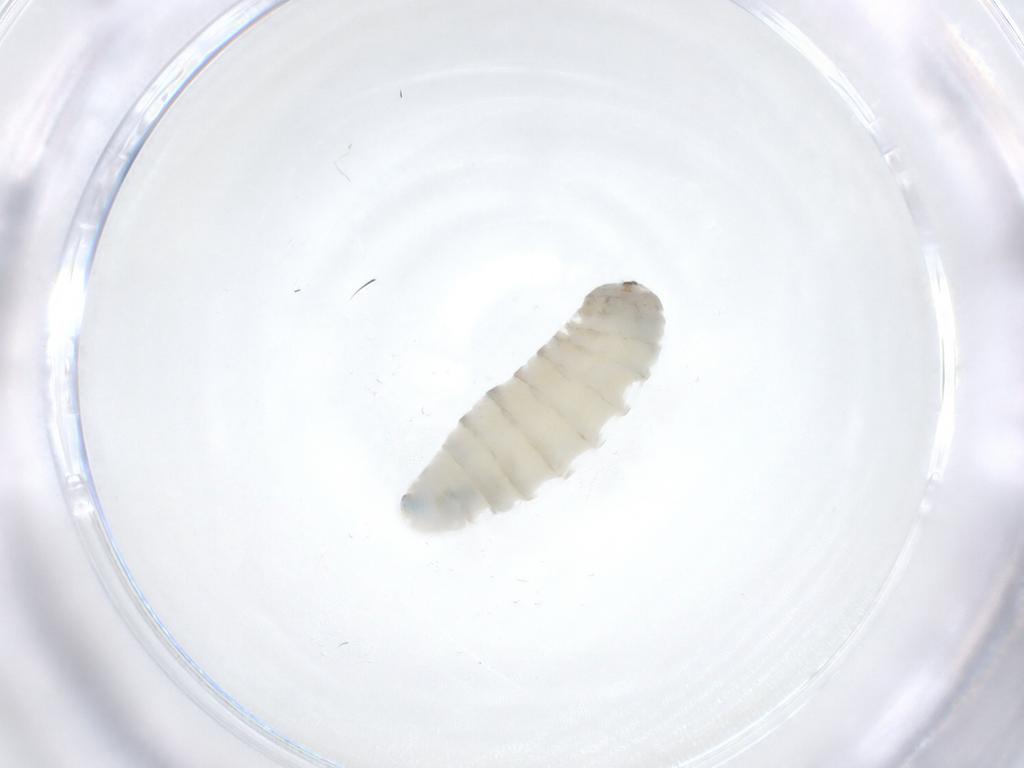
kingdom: Animalia
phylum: Arthropoda
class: Insecta
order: Diptera
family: Anthomyiidae
